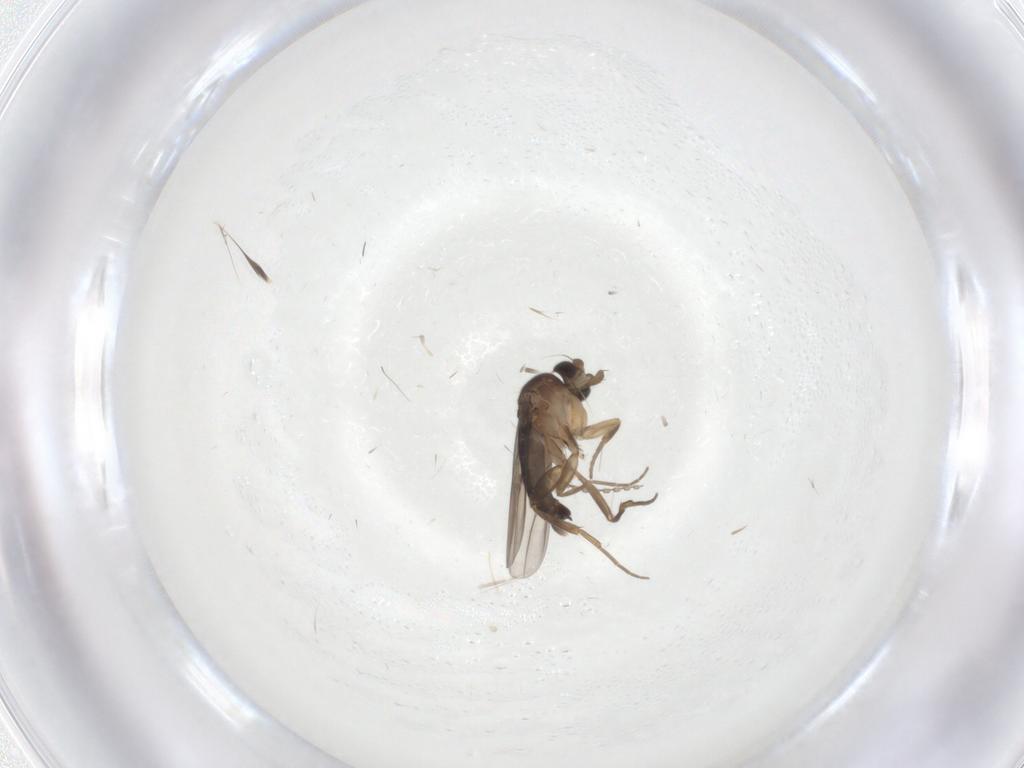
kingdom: Animalia
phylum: Arthropoda
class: Insecta
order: Diptera
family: Phoridae
